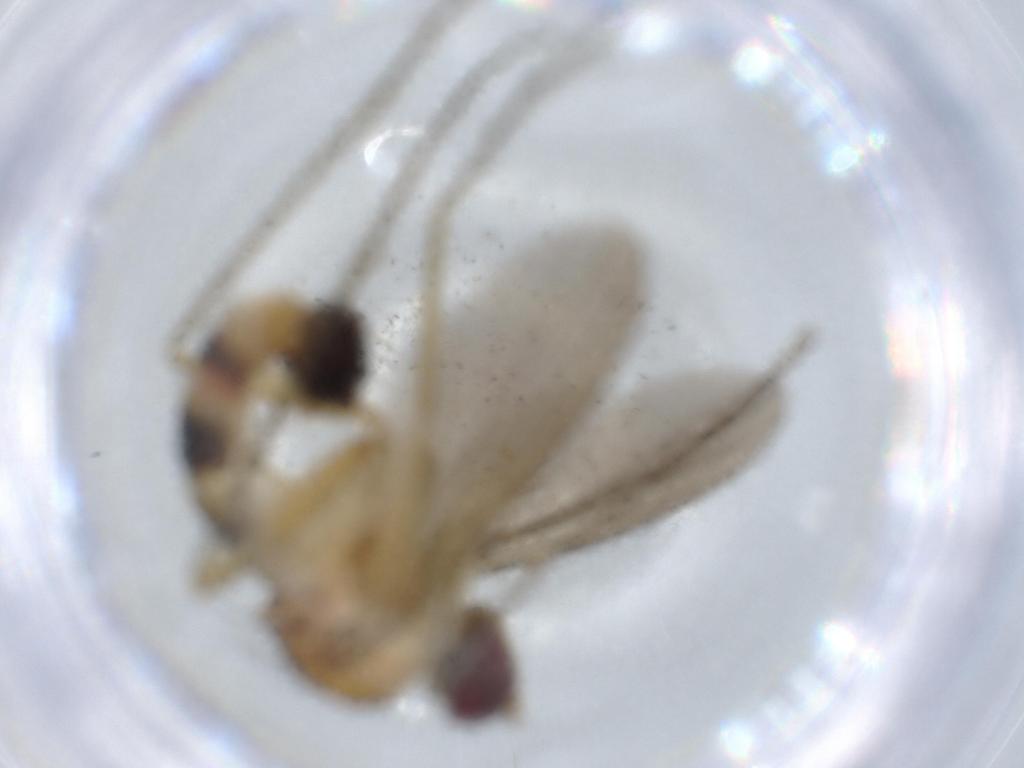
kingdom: Animalia
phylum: Arthropoda
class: Insecta
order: Diptera
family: Dolichopodidae
